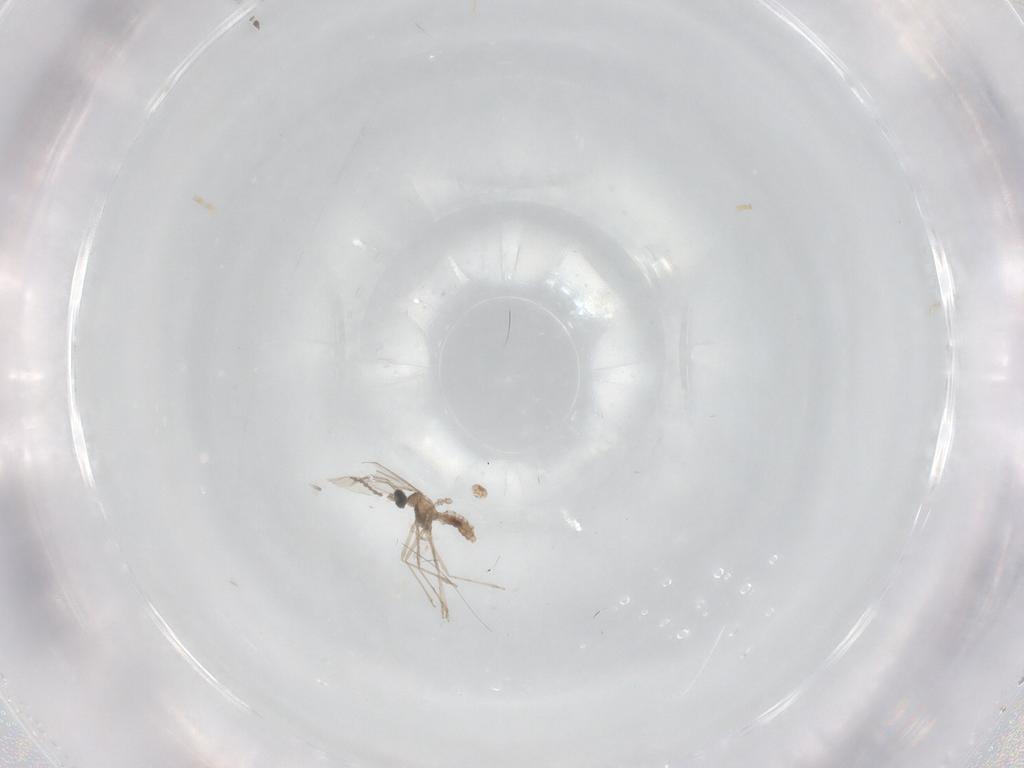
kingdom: Animalia
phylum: Arthropoda
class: Insecta
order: Diptera
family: Cecidomyiidae
